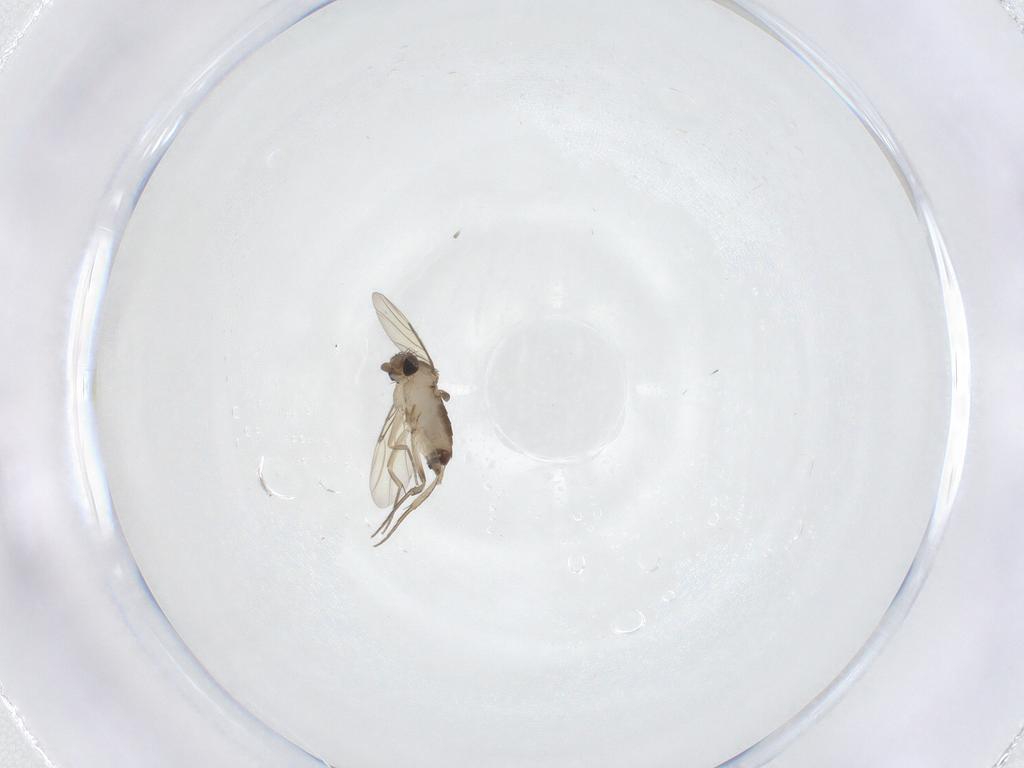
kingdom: Animalia
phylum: Arthropoda
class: Insecta
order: Diptera
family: Phoridae
